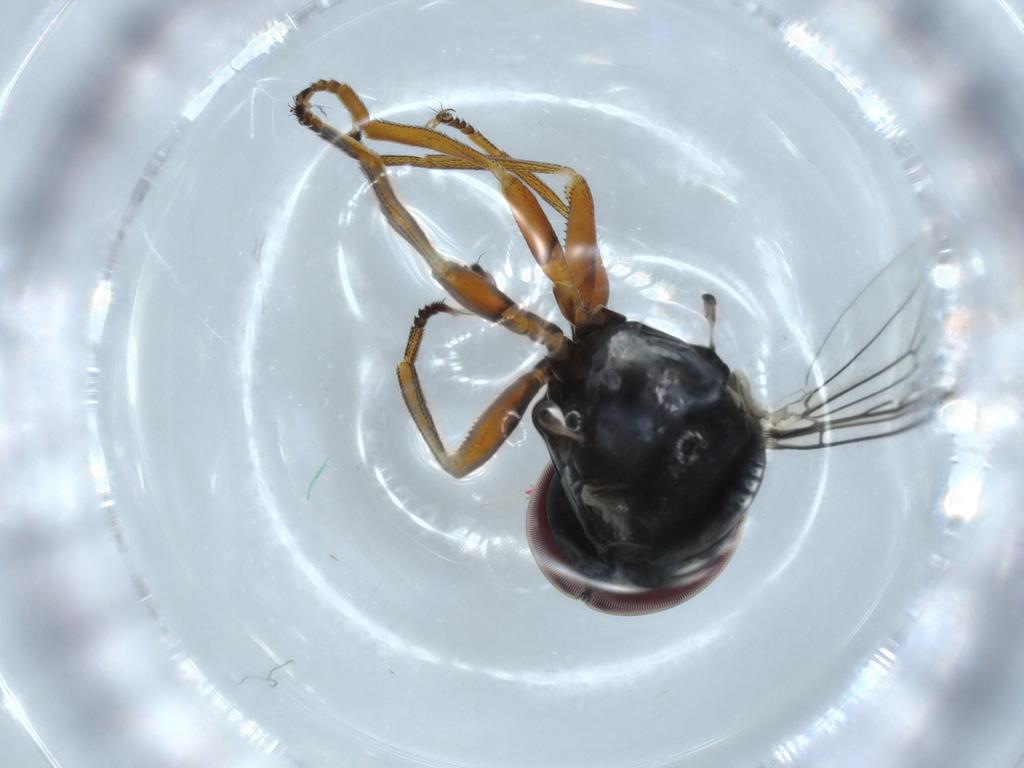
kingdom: Animalia
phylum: Arthropoda
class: Insecta
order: Diptera
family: Pipunculidae
